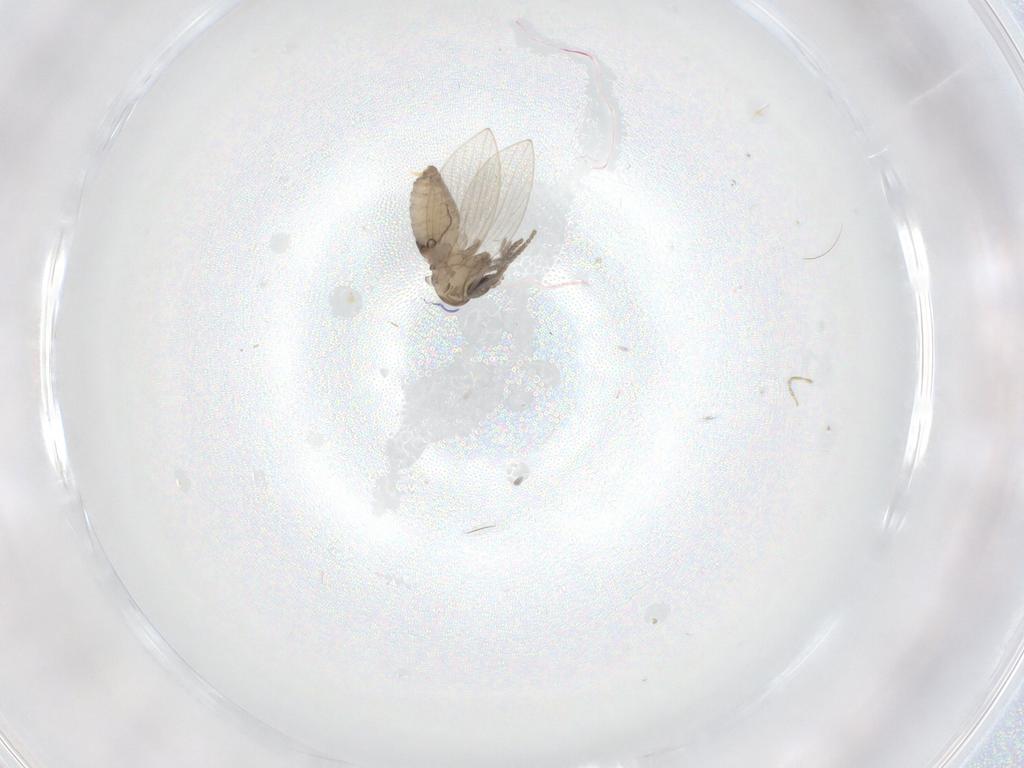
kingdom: Animalia
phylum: Arthropoda
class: Insecta
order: Diptera
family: Psychodidae
